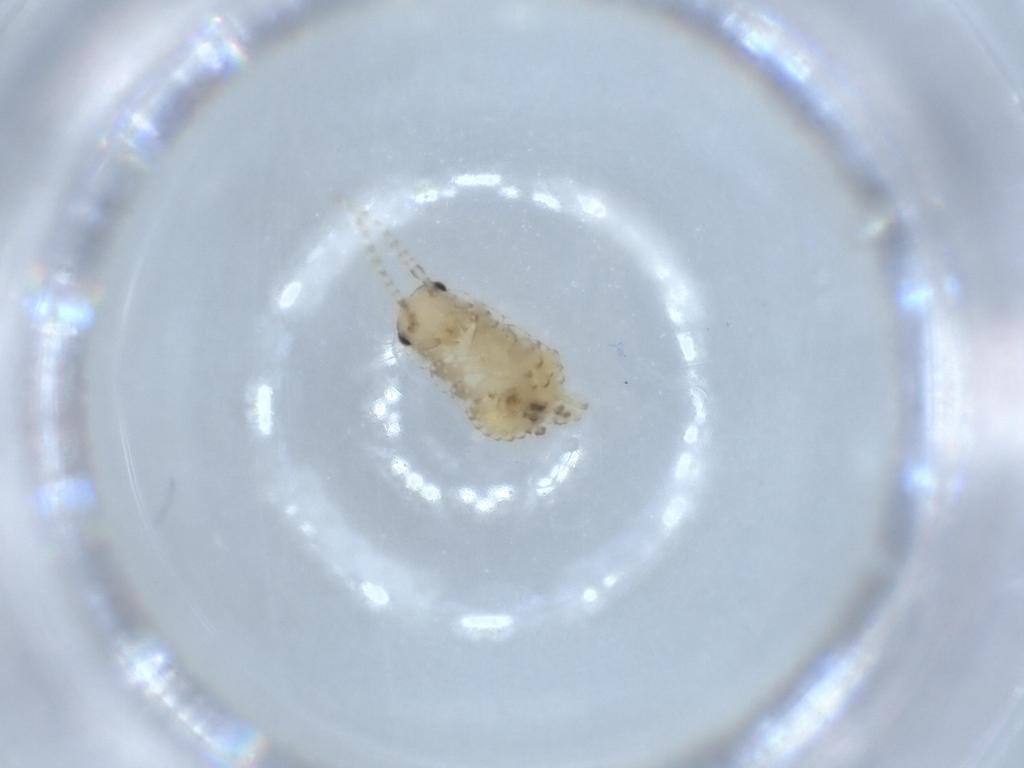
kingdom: Animalia
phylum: Arthropoda
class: Insecta
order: Blattodea
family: Ectobiidae
